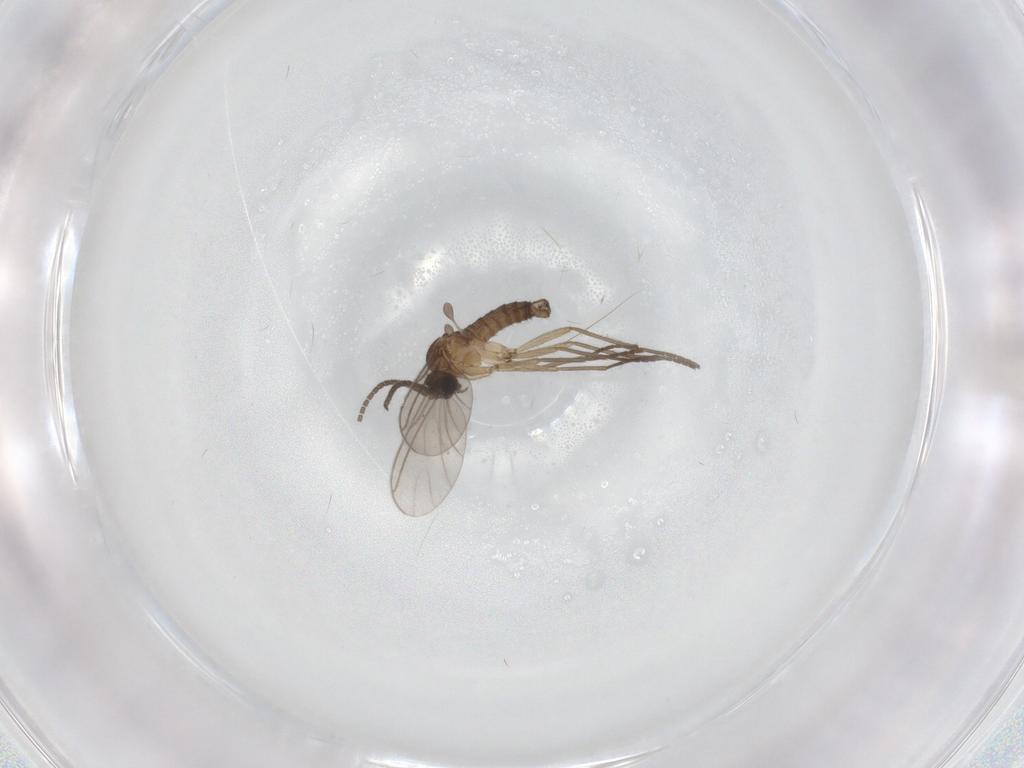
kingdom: Animalia
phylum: Arthropoda
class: Insecta
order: Diptera
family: Sciaridae
